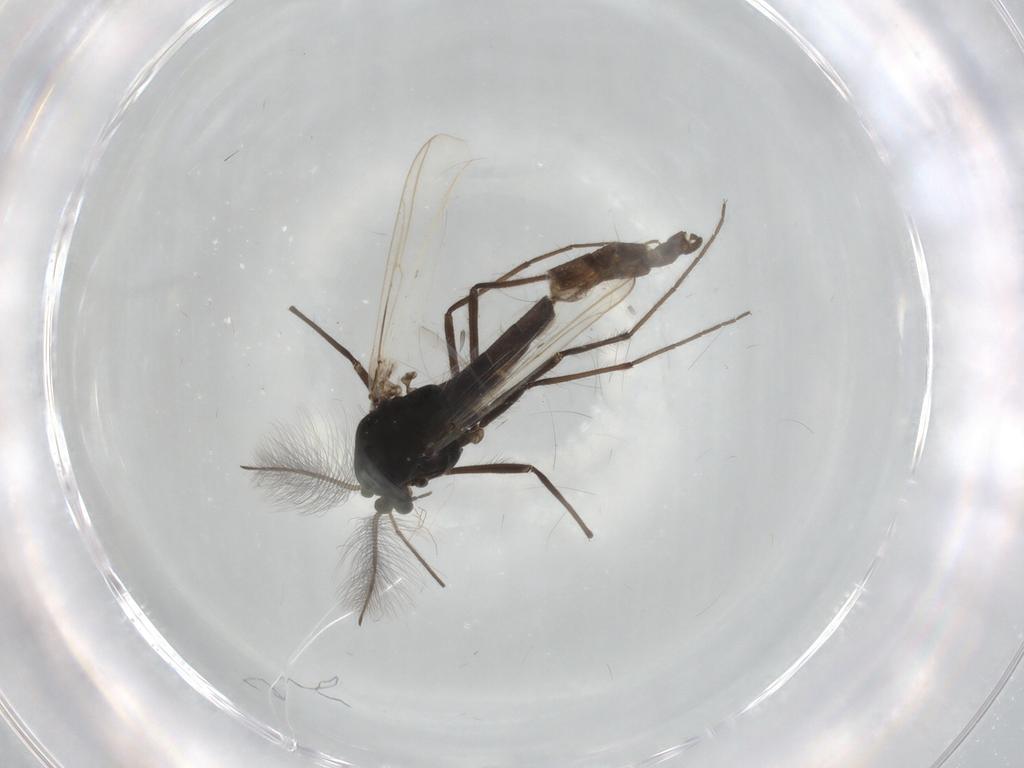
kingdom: Animalia
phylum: Arthropoda
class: Insecta
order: Diptera
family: Chironomidae
